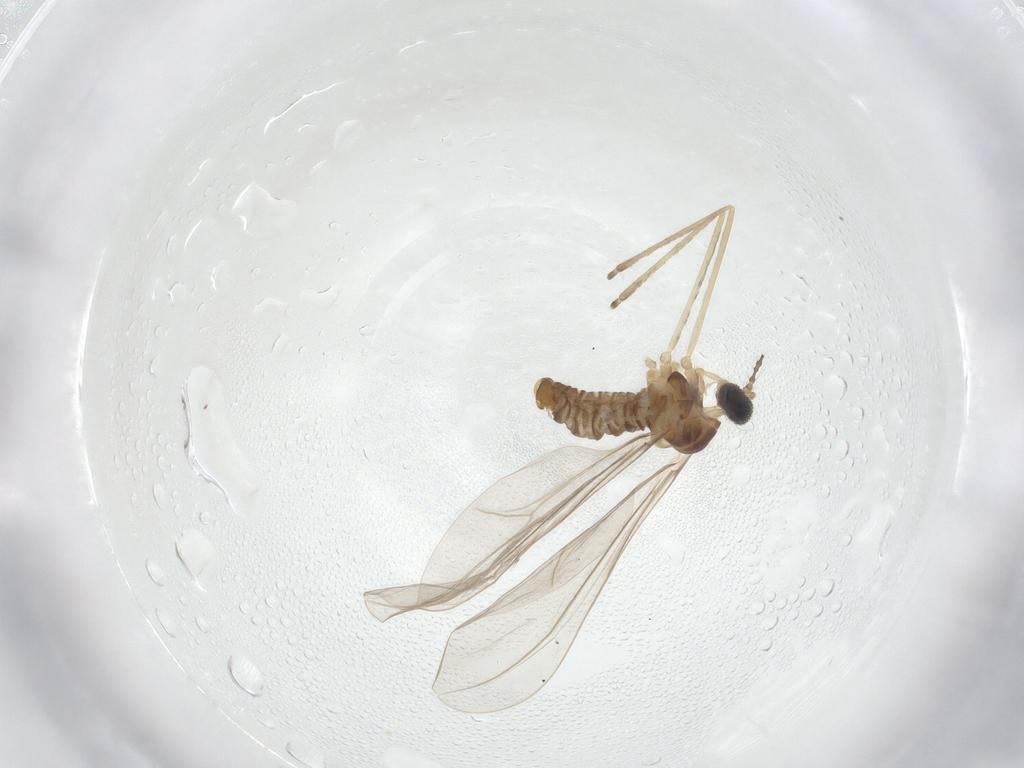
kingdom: Animalia
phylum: Arthropoda
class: Insecta
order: Diptera
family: Cecidomyiidae
